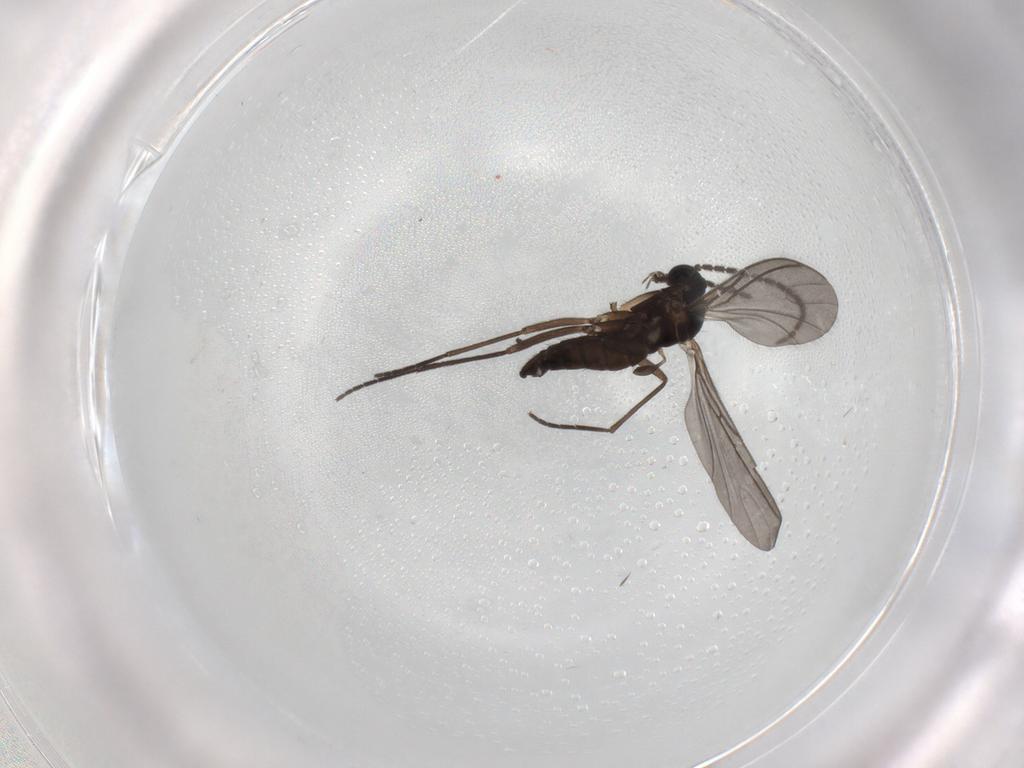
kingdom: Animalia
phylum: Arthropoda
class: Insecta
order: Diptera
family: Sciaridae
